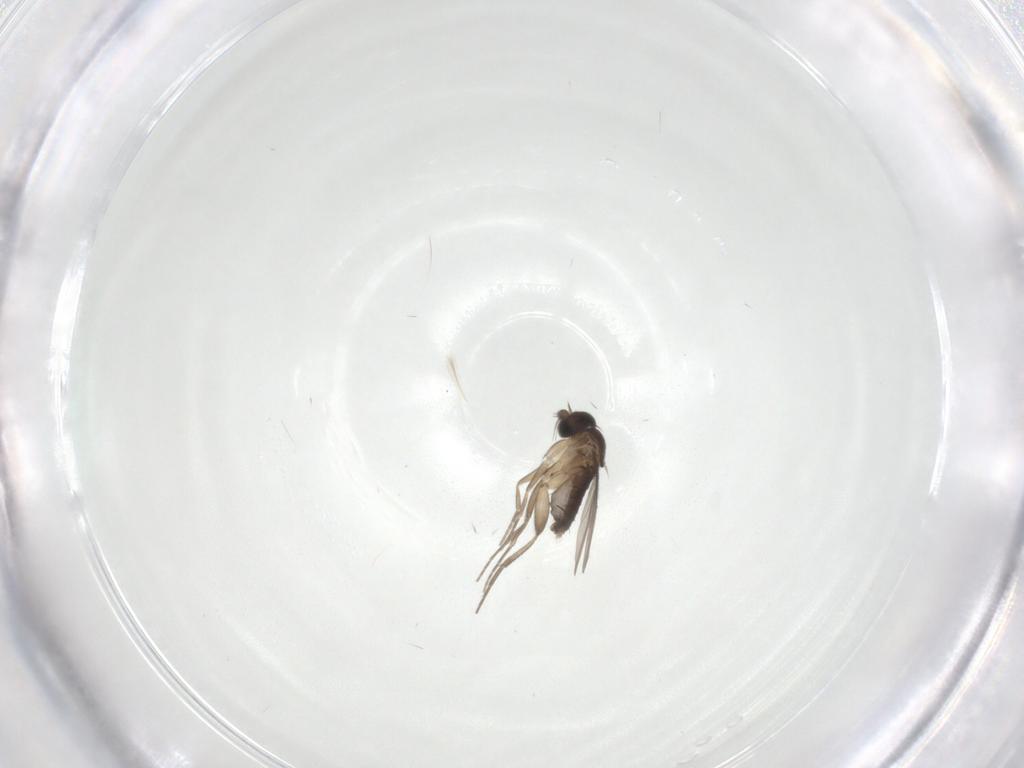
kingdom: Animalia
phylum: Arthropoda
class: Insecta
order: Diptera
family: Phoridae
